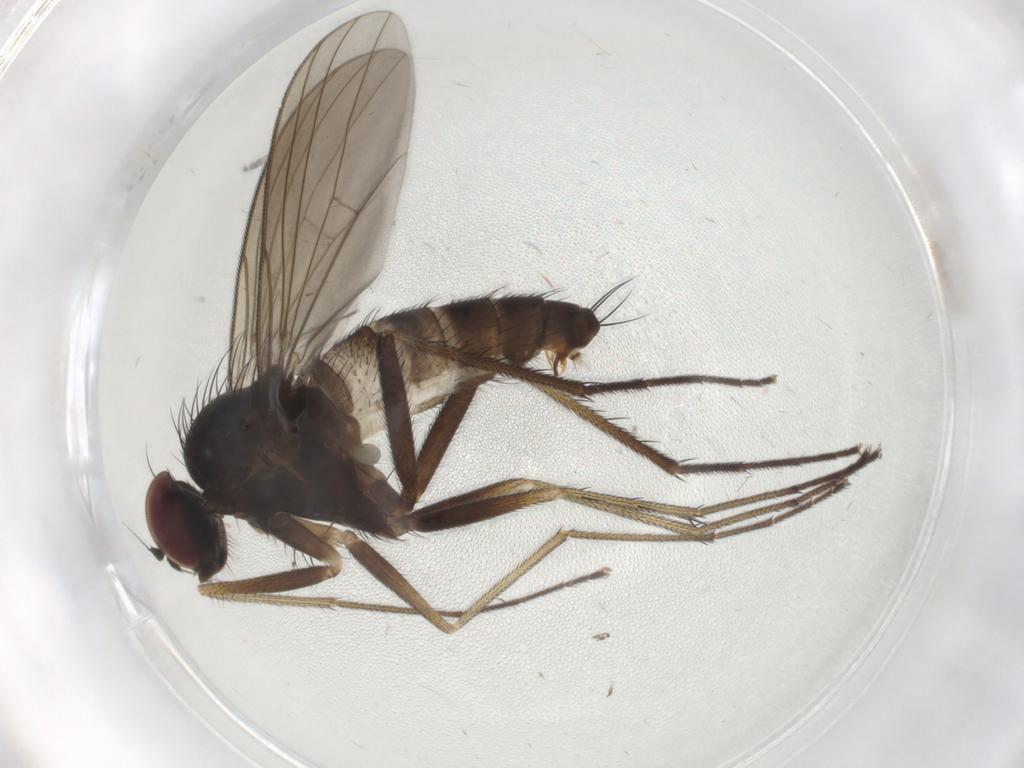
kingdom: Animalia
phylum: Arthropoda
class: Insecta
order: Diptera
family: Dolichopodidae
